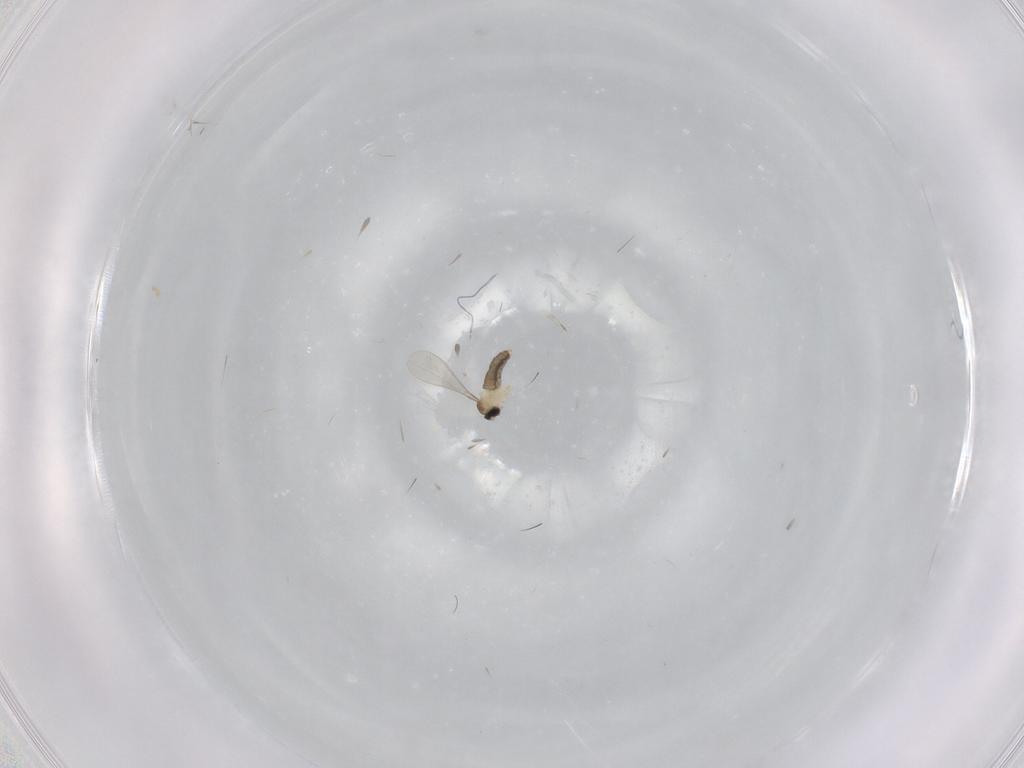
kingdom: Animalia
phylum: Arthropoda
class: Insecta
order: Diptera
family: Cecidomyiidae
